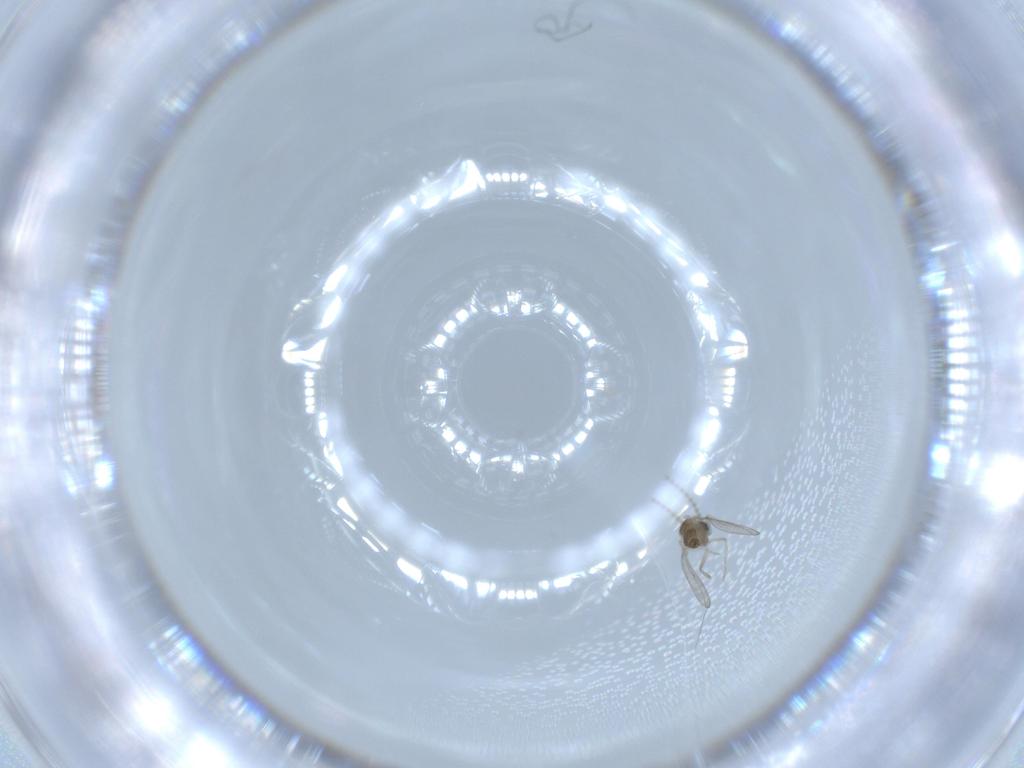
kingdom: Animalia
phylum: Arthropoda
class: Insecta
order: Diptera
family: Cecidomyiidae
